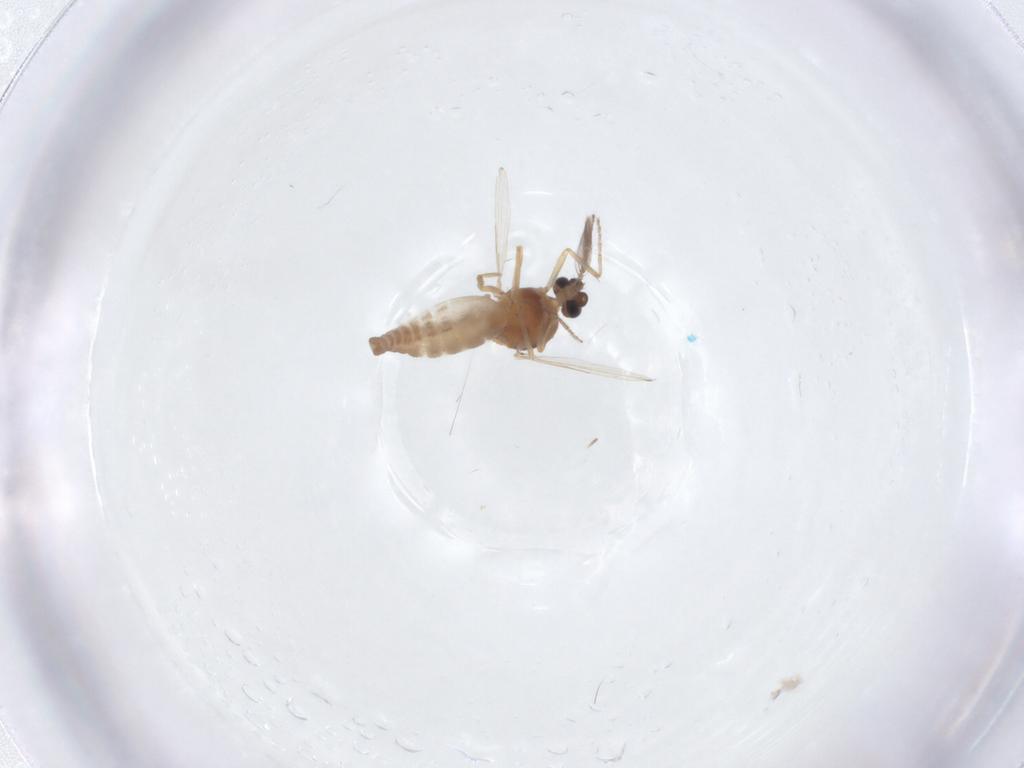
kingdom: Animalia
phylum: Arthropoda
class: Insecta
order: Diptera
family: Ceratopogonidae
